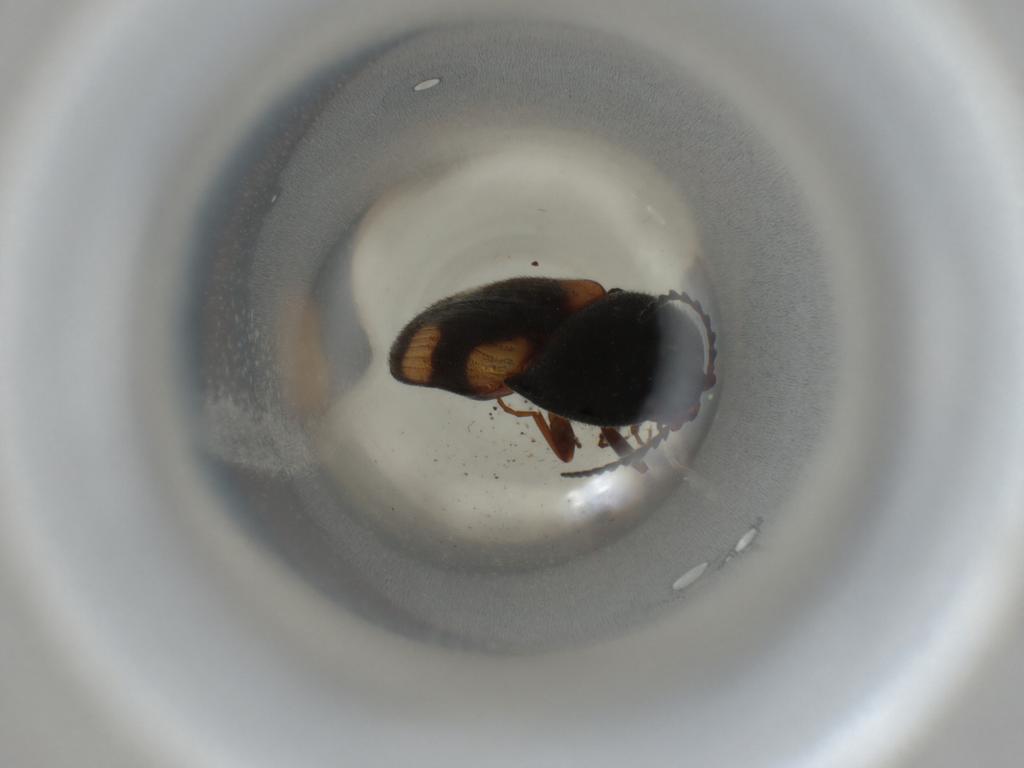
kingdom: Animalia
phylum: Arthropoda
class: Insecta
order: Coleoptera
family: Elateridae
